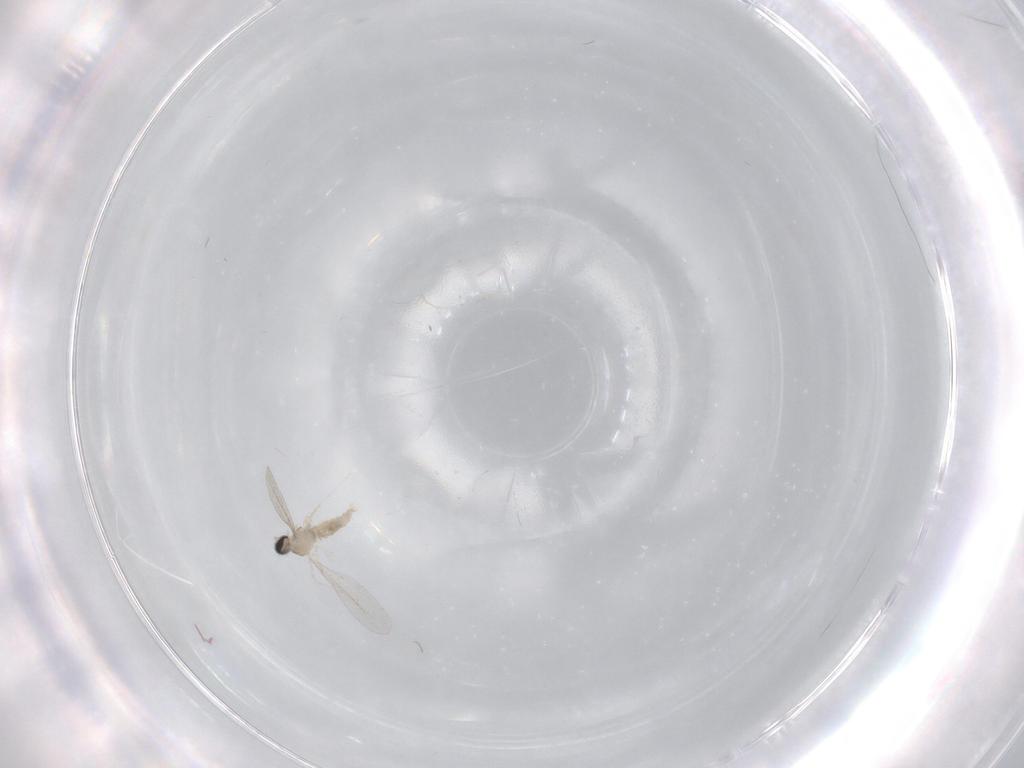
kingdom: Animalia
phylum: Arthropoda
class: Insecta
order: Diptera
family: Cecidomyiidae
